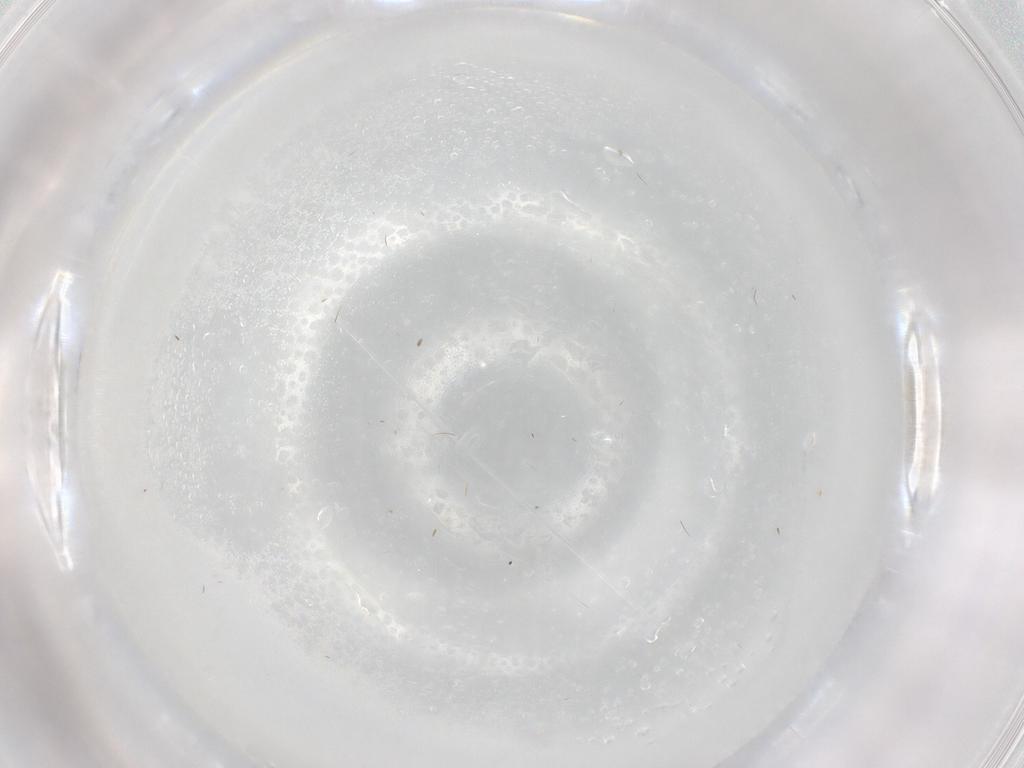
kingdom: Animalia
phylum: Arthropoda
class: Insecta
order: Diptera
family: Psychodidae
